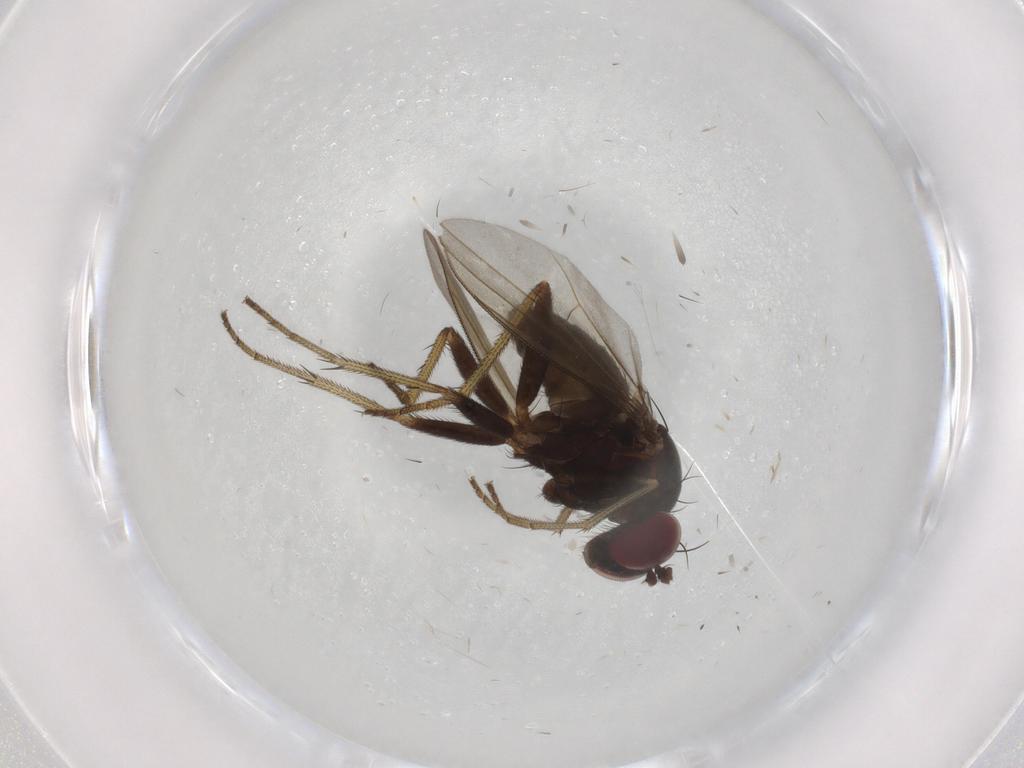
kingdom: Animalia
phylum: Arthropoda
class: Insecta
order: Diptera
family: Dolichopodidae
